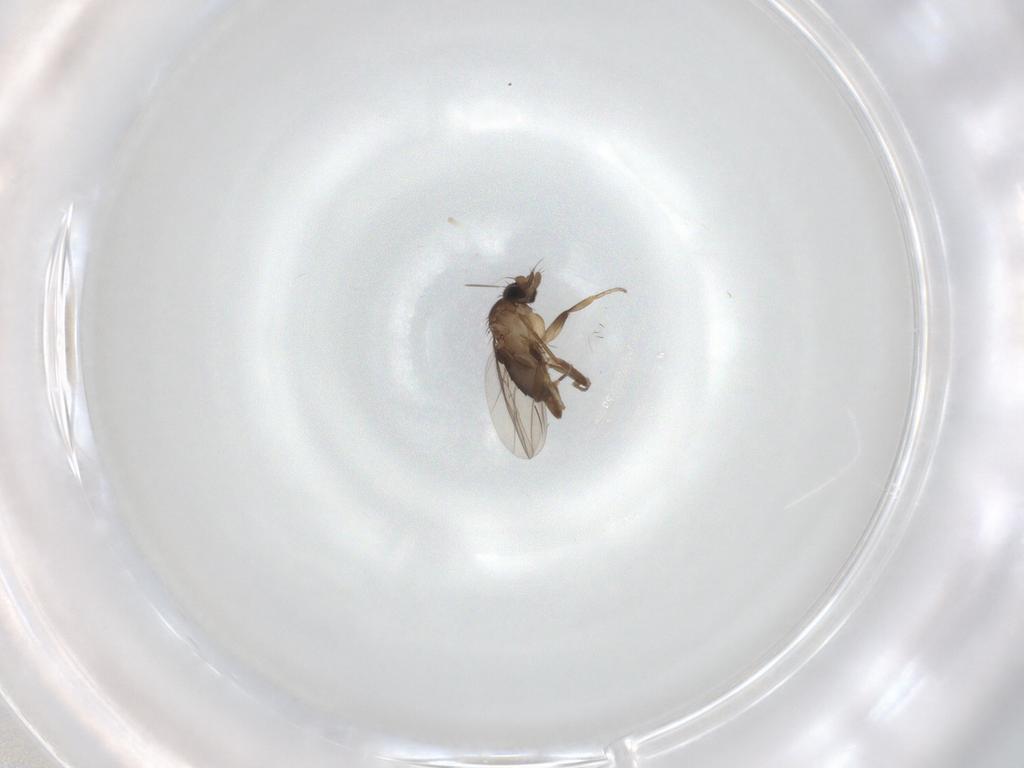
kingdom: Animalia
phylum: Arthropoda
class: Insecta
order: Diptera
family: Phoridae
